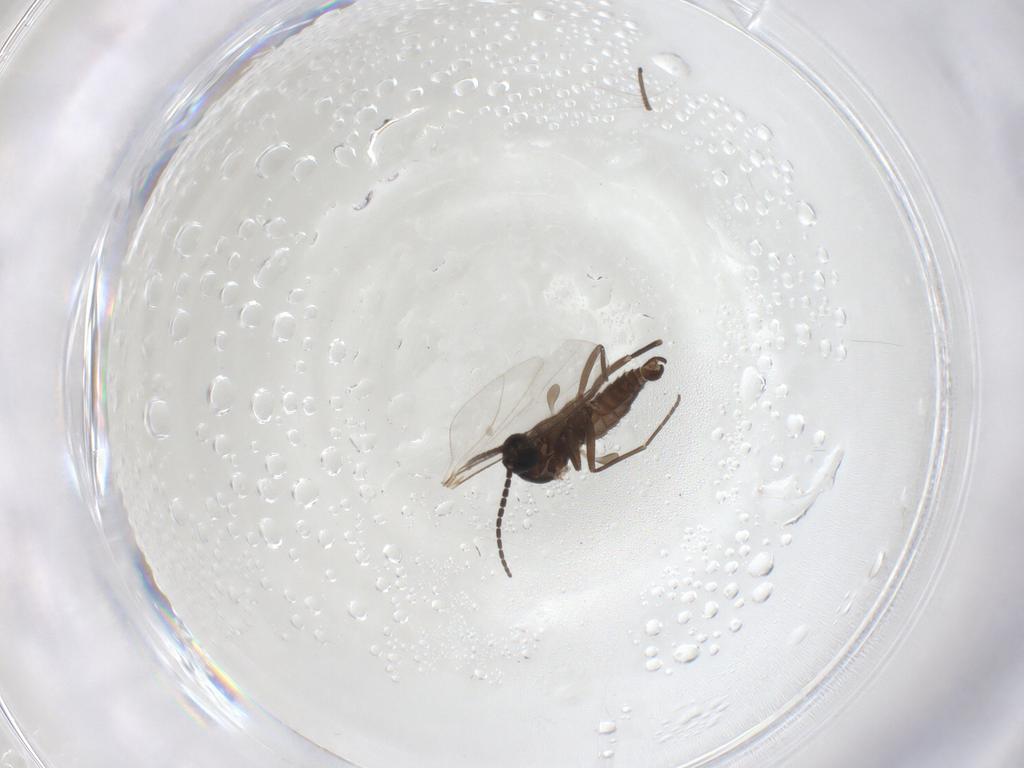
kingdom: Animalia
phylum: Arthropoda
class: Insecta
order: Diptera
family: Sciaridae
